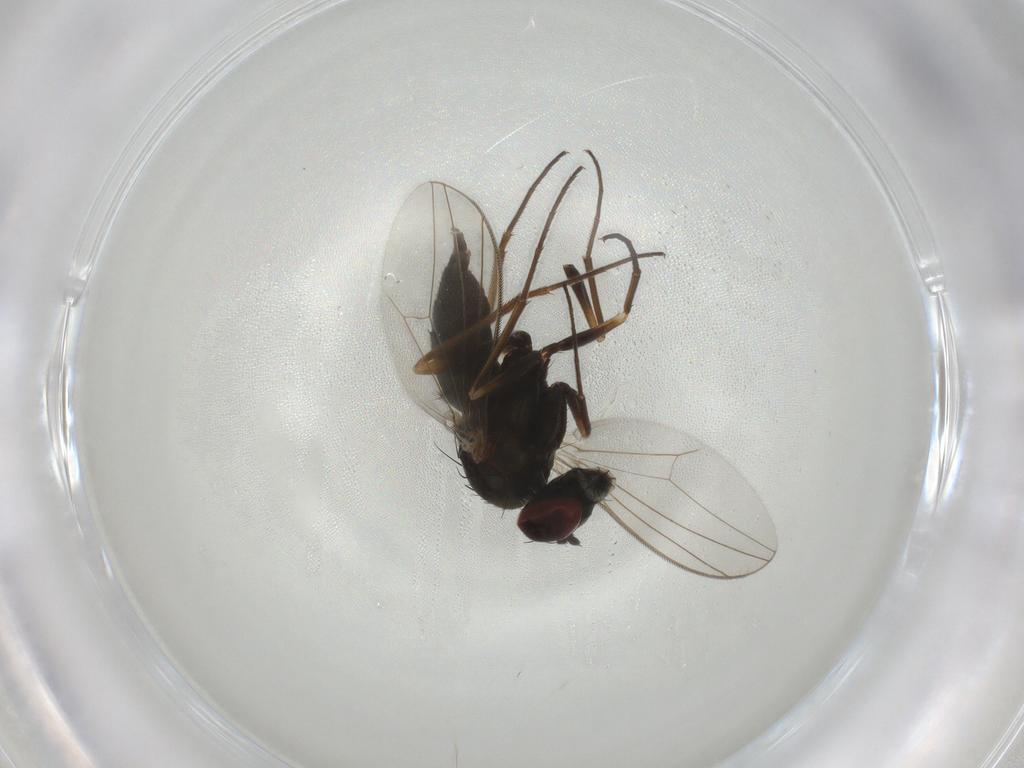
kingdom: Animalia
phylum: Arthropoda
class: Insecta
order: Diptera
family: Dolichopodidae
